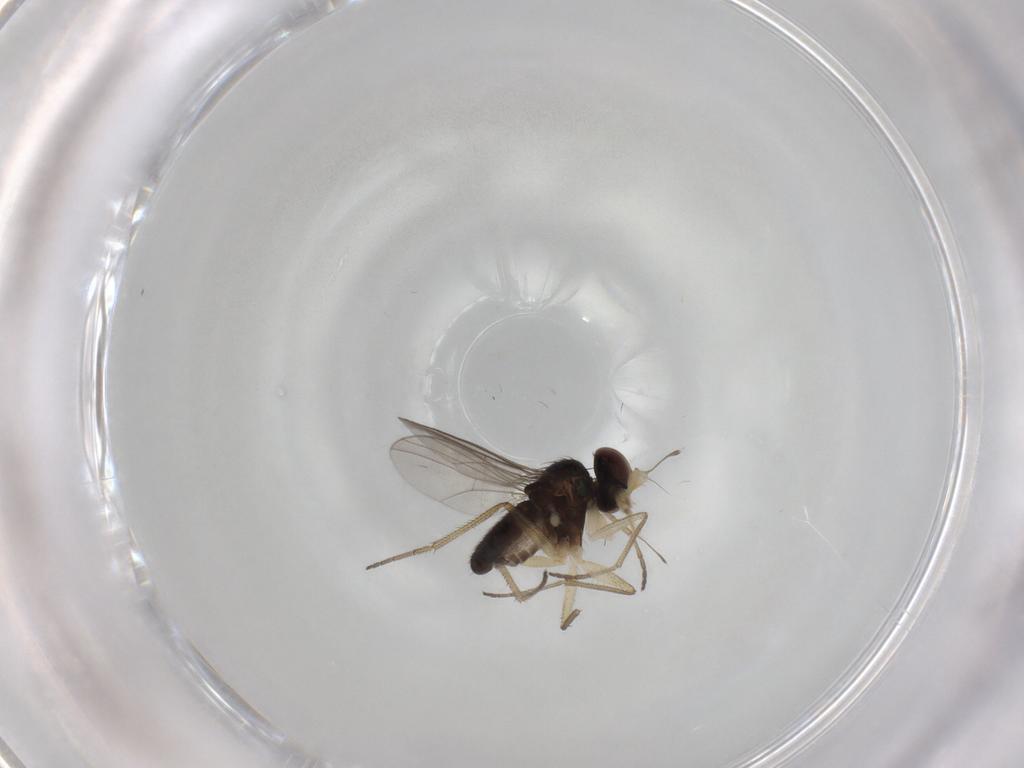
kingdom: Animalia
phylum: Arthropoda
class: Insecta
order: Diptera
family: Dolichopodidae
